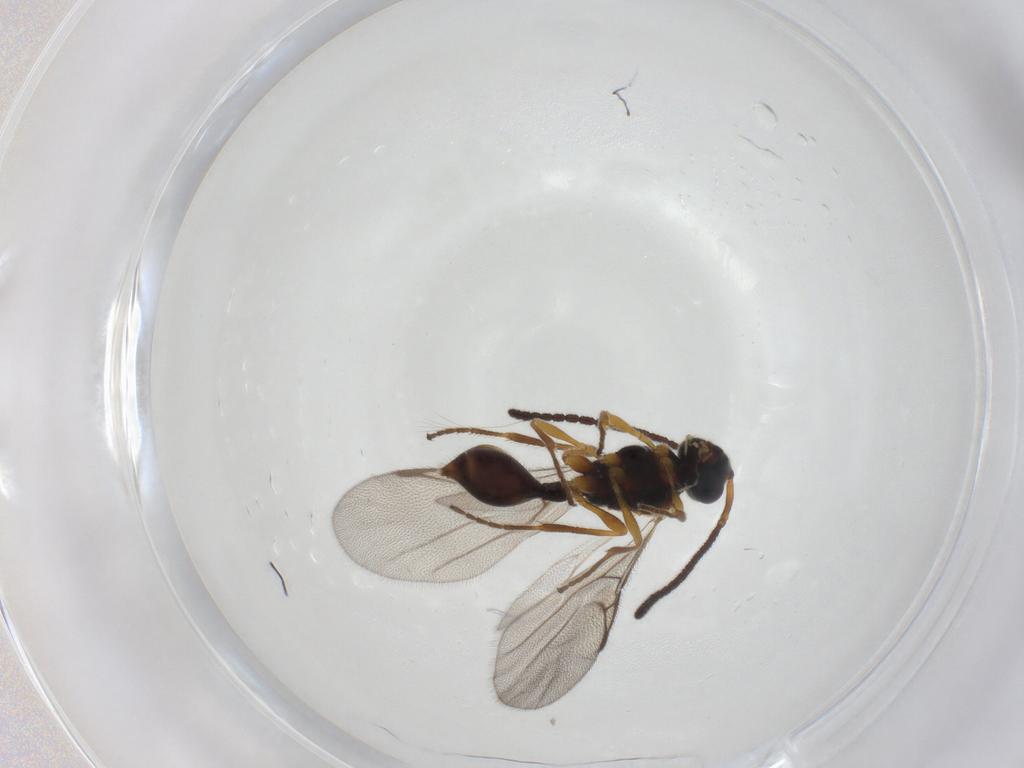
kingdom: Animalia
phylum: Arthropoda
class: Insecta
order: Hymenoptera
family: Diapriidae
